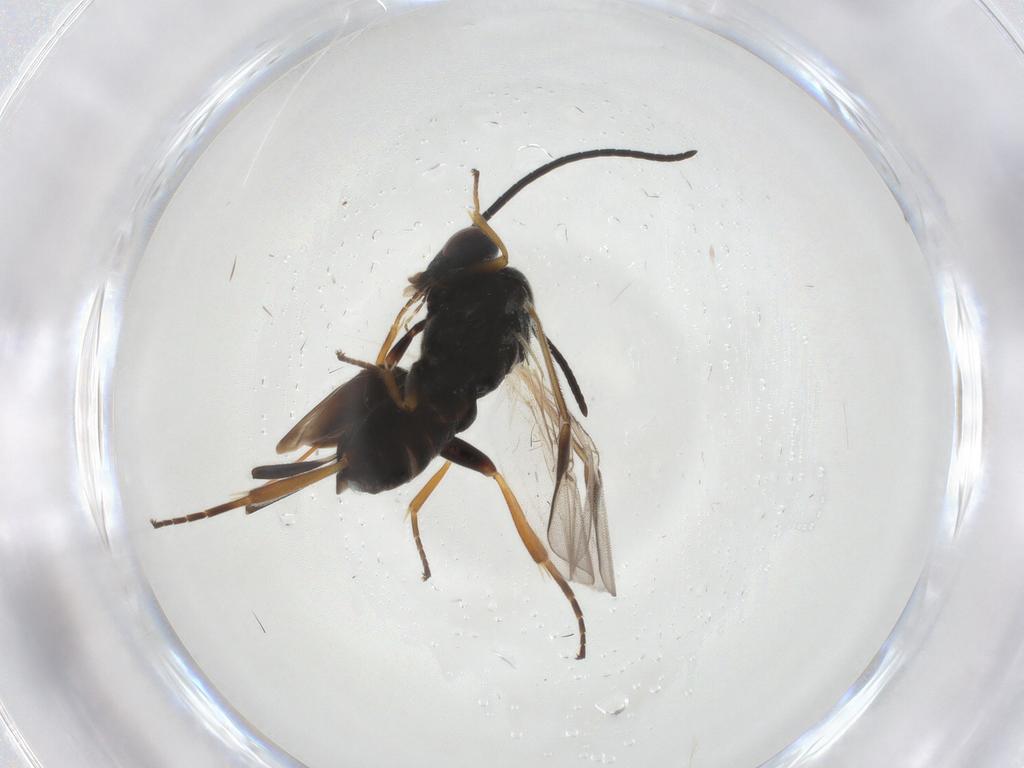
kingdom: Animalia
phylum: Arthropoda
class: Insecta
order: Hymenoptera
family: Braconidae
